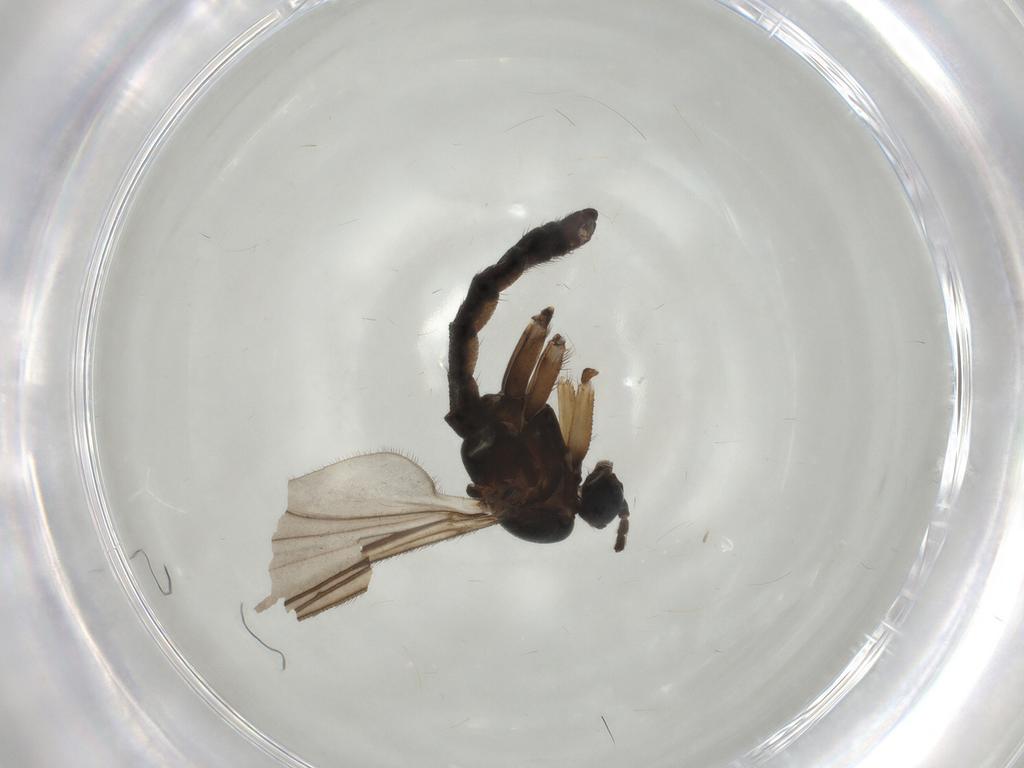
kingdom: Animalia
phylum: Arthropoda
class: Insecta
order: Diptera
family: Sciaridae
